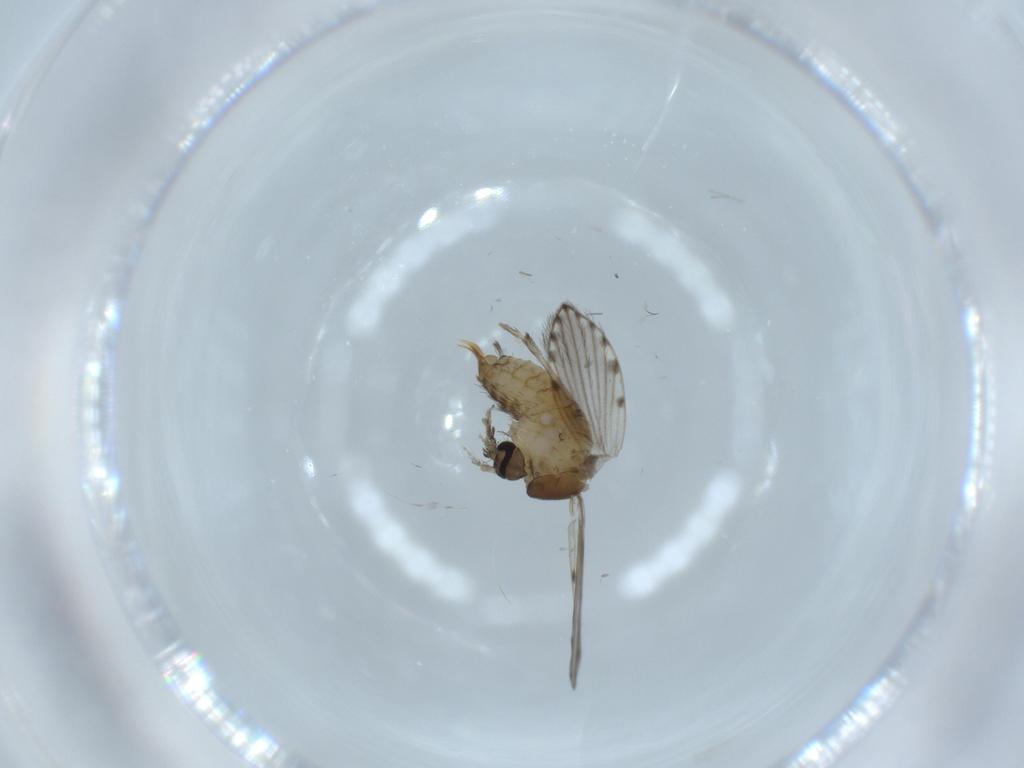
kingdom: Animalia
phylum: Arthropoda
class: Insecta
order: Diptera
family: Psychodidae
